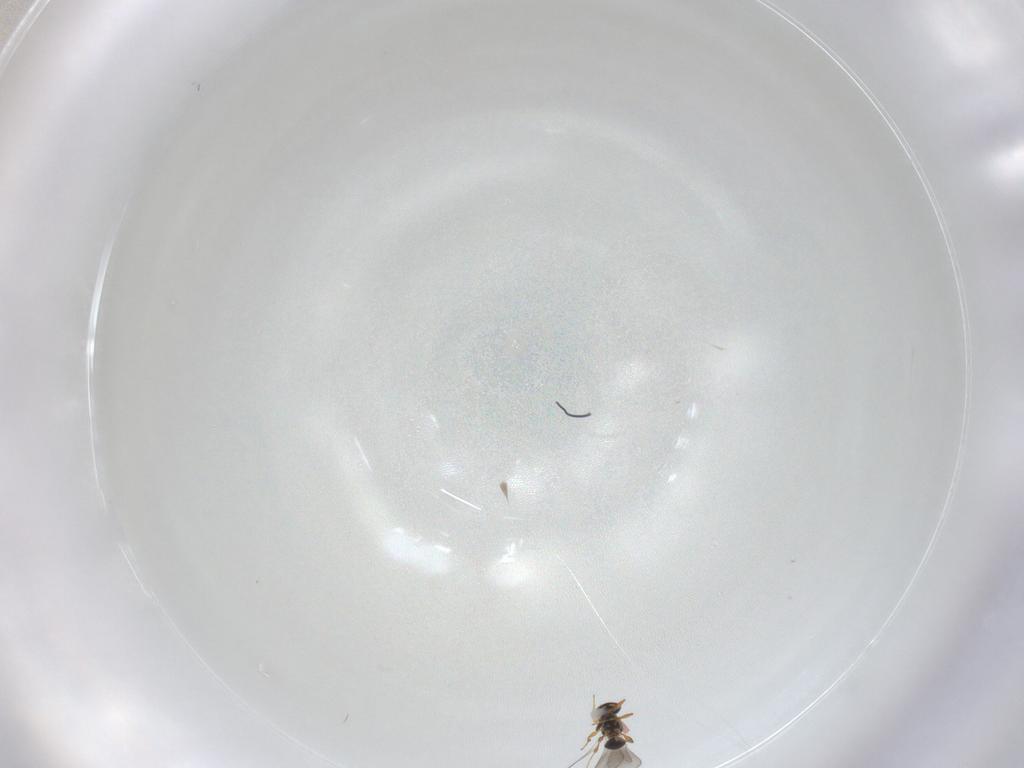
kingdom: Animalia
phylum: Arthropoda
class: Insecta
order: Hymenoptera
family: Platygastridae
